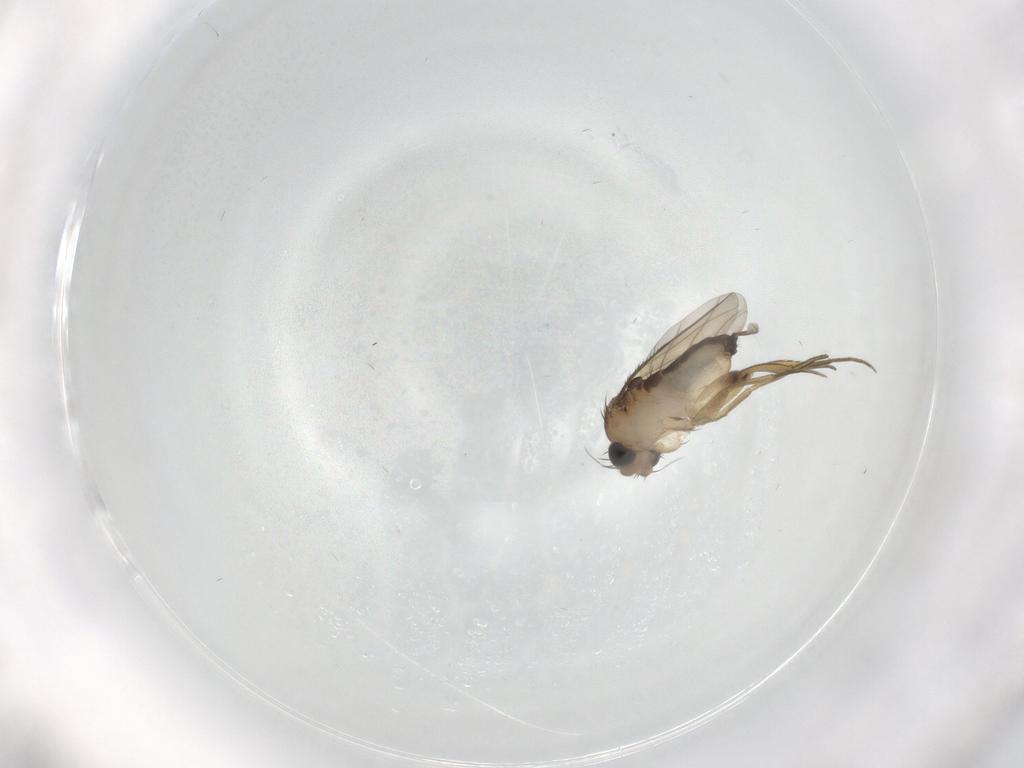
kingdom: Animalia
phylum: Arthropoda
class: Insecta
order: Diptera
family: Phoridae
